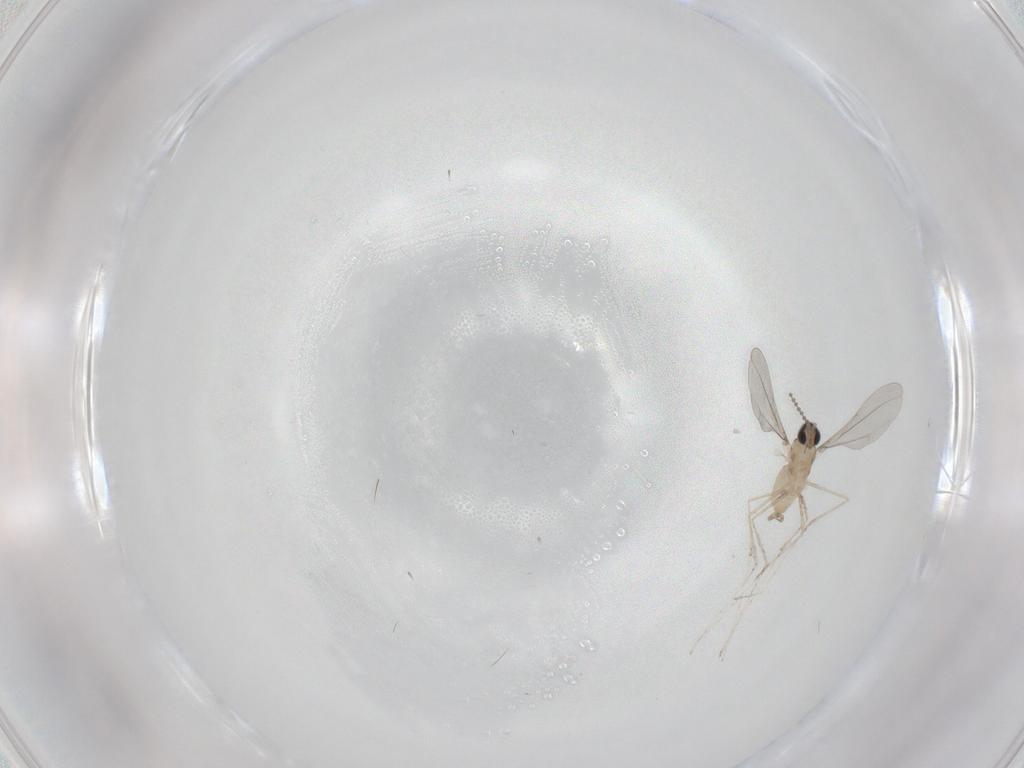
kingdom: Animalia
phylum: Arthropoda
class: Insecta
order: Diptera
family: Cecidomyiidae
